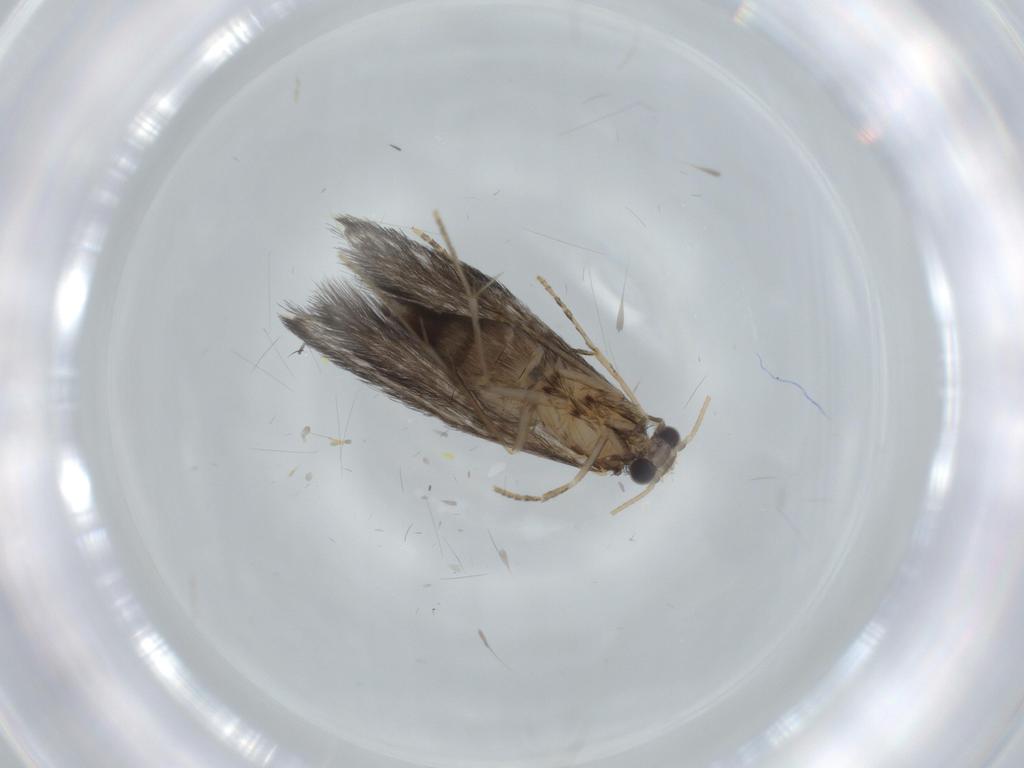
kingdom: Animalia
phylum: Arthropoda
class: Insecta
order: Trichoptera
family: Hydroptilidae
